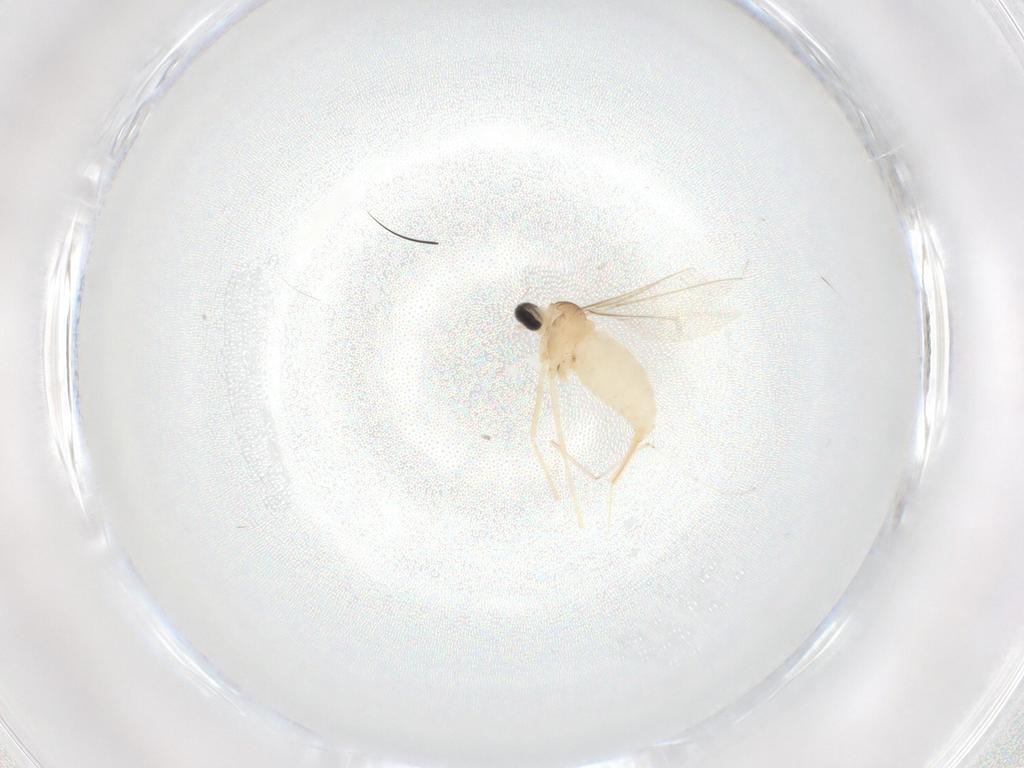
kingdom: Animalia
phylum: Arthropoda
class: Insecta
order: Diptera
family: Cecidomyiidae
